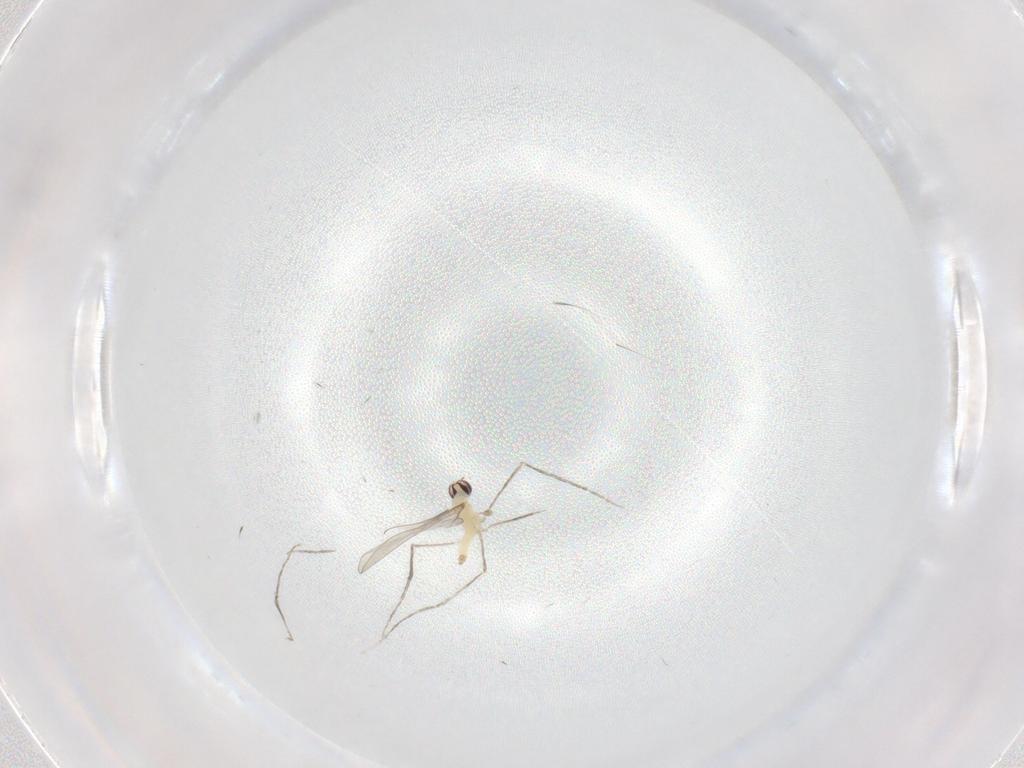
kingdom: Animalia
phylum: Arthropoda
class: Insecta
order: Diptera
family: Cecidomyiidae
